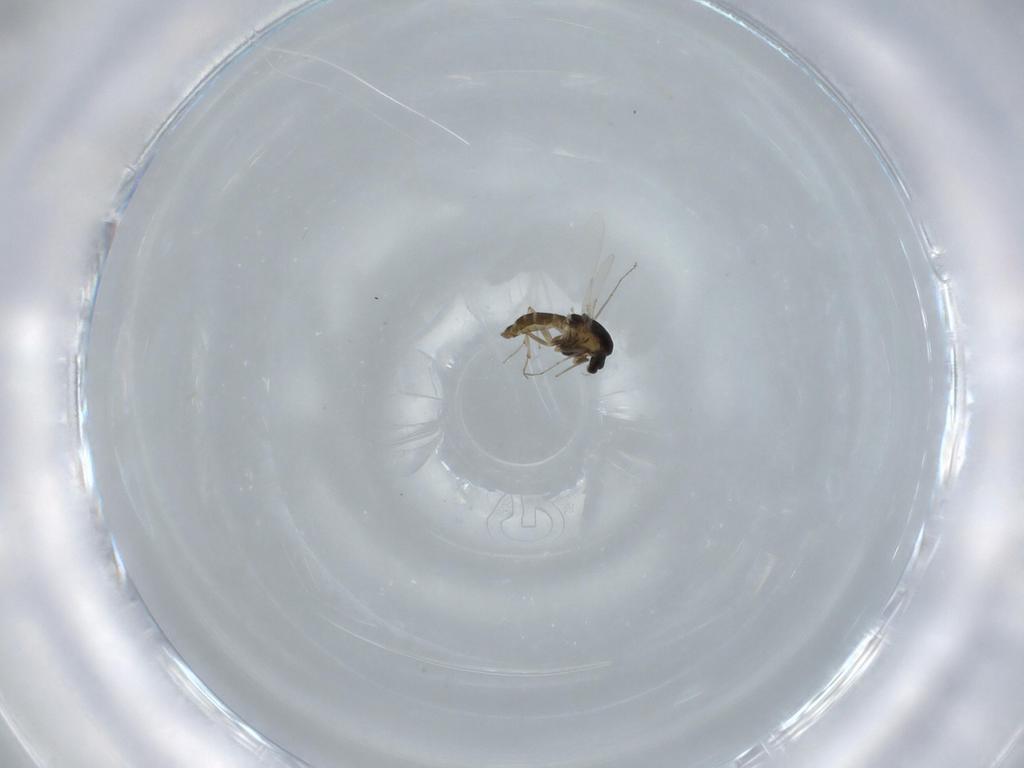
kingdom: Animalia
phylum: Arthropoda
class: Insecta
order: Diptera
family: Chironomidae
